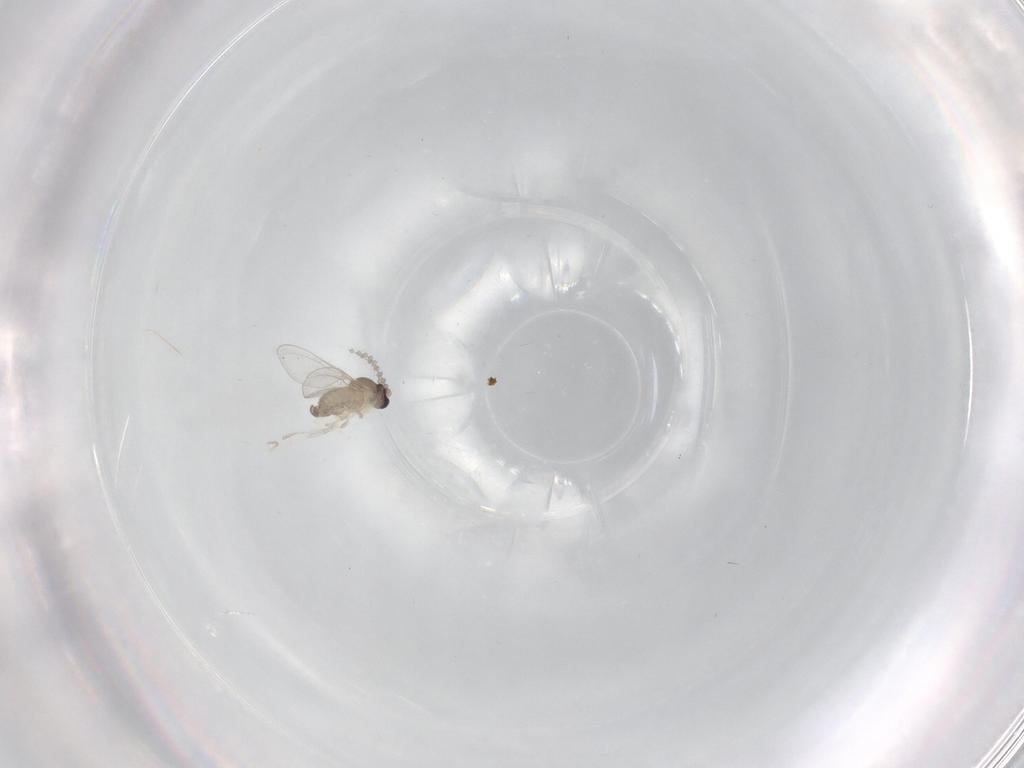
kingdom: Animalia
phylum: Arthropoda
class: Insecta
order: Diptera
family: Cecidomyiidae
